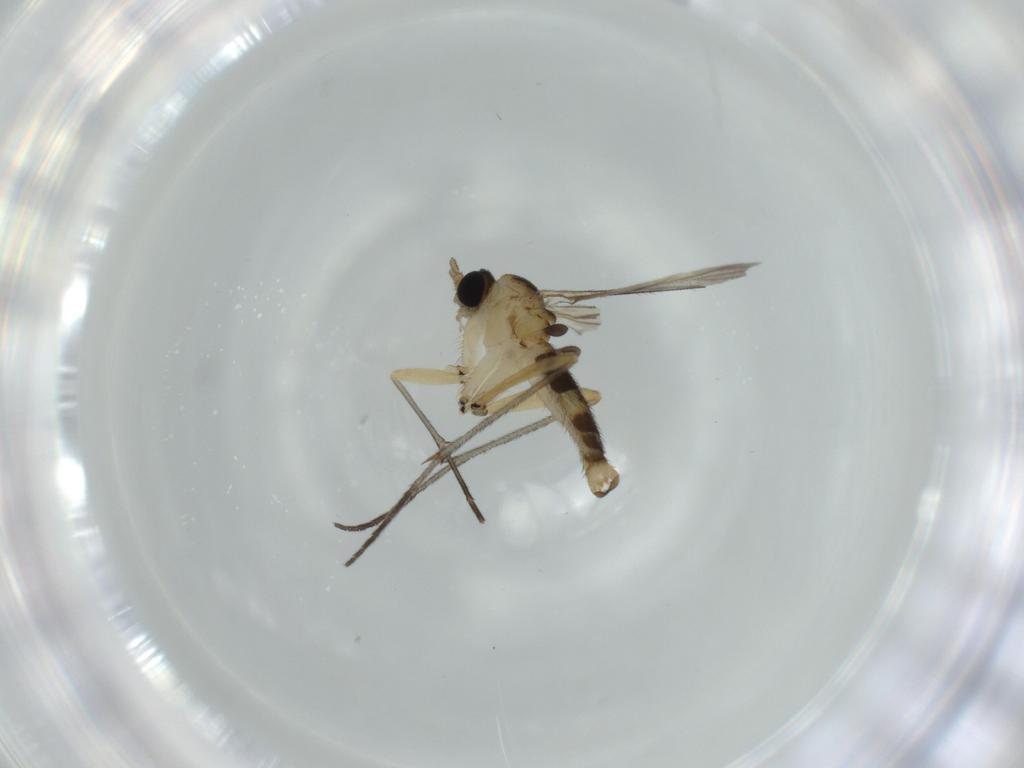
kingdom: Animalia
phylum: Arthropoda
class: Insecta
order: Diptera
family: Sciaridae
